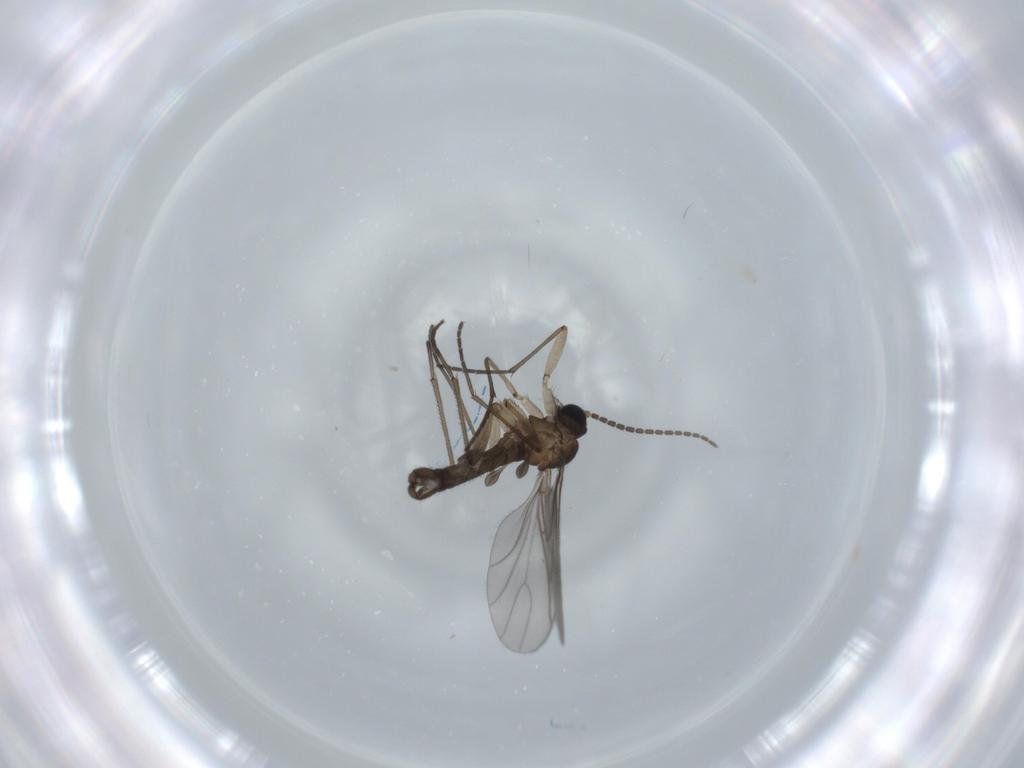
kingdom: Animalia
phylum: Arthropoda
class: Insecta
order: Diptera
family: Sciaridae
